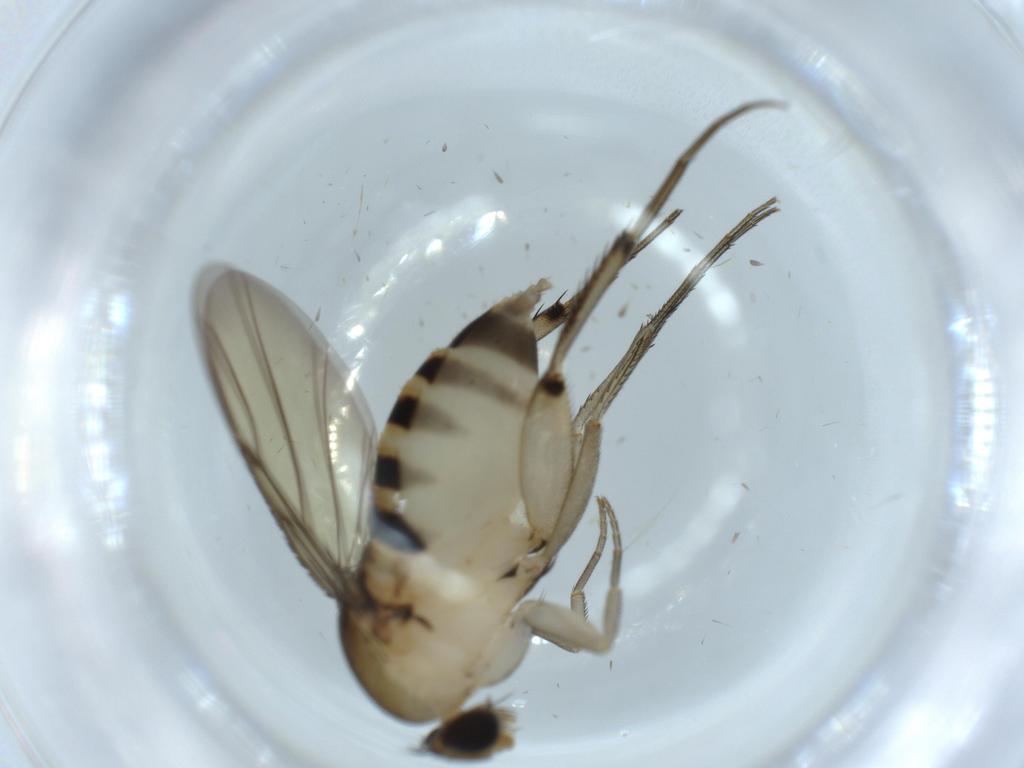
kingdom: Animalia
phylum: Arthropoda
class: Insecta
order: Diptera
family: Phoridae
